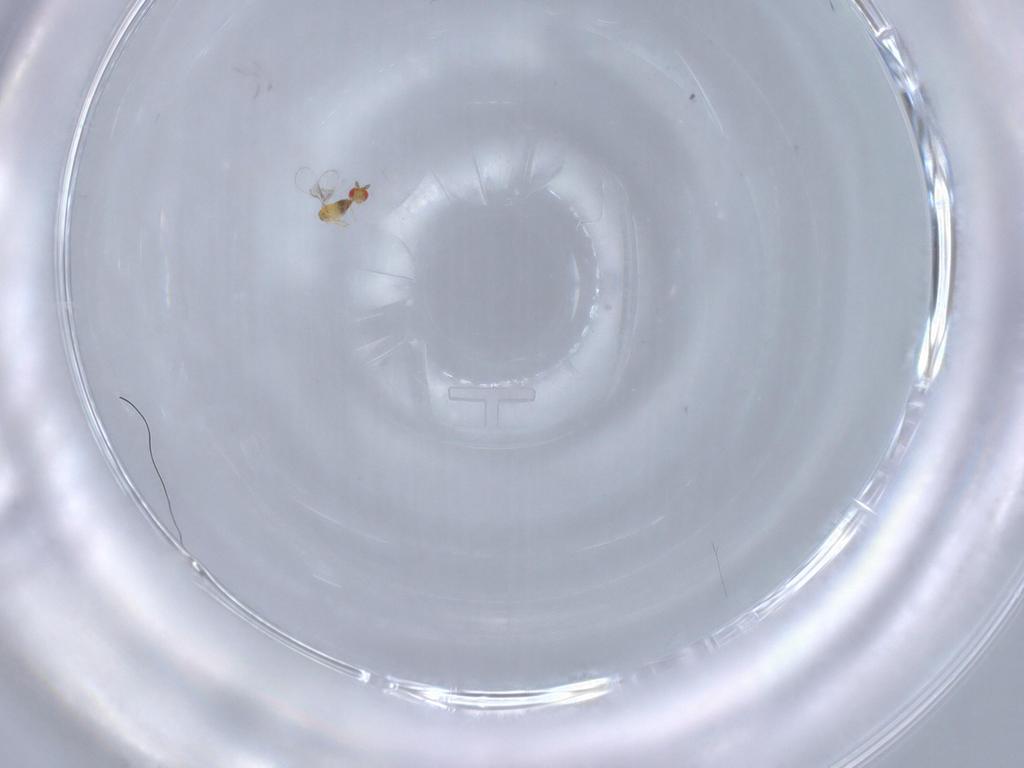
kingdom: Animalia
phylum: Arthropoda
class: Insecta
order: Hymenoptera
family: Trichogrammatidae
